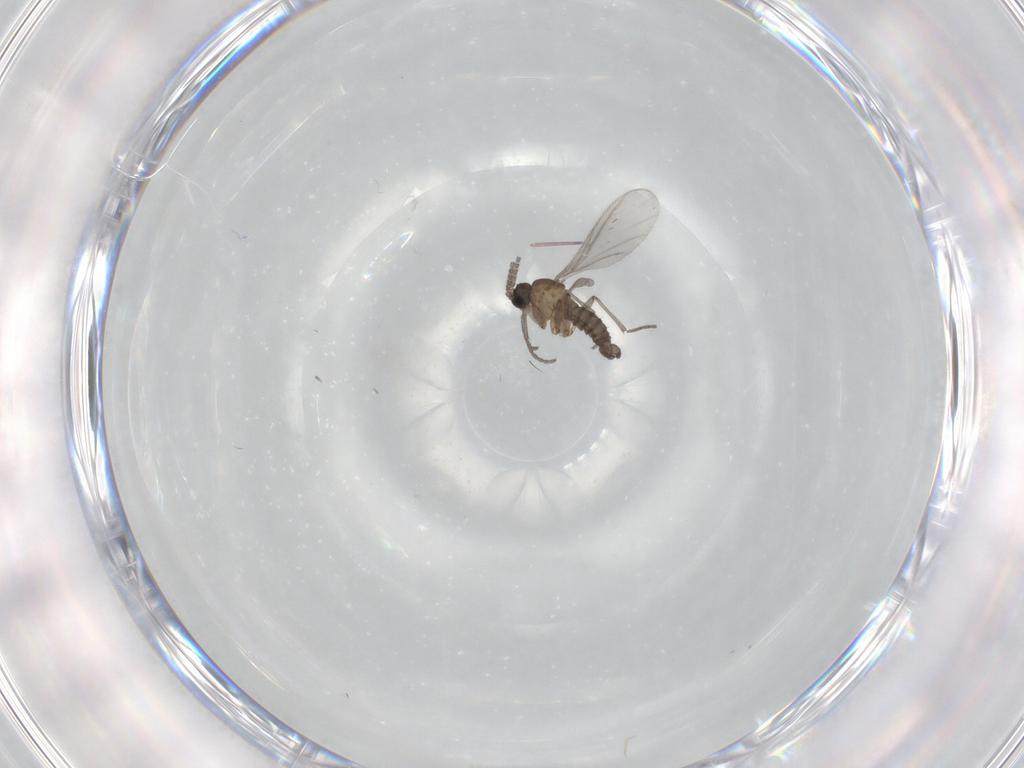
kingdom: Animalia
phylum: Arthropoda
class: Insecta
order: Diptera
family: Sciaridae
